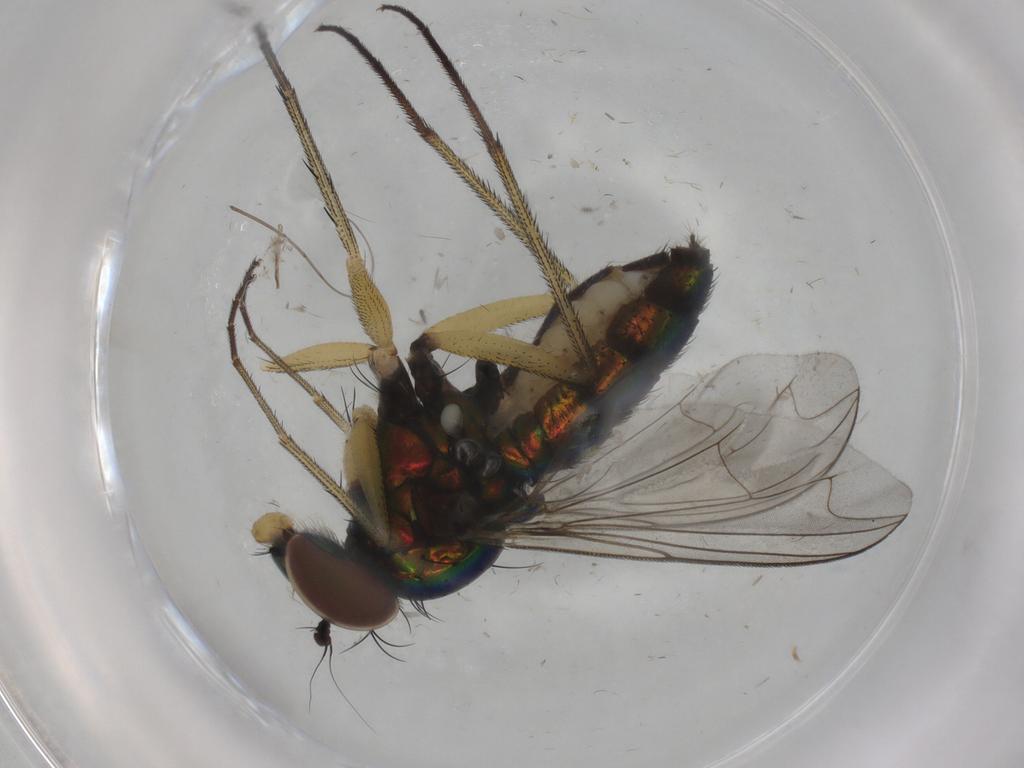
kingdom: Animalia
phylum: Arthropoda
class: Insecta
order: Diptera
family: Dolichopodidae
